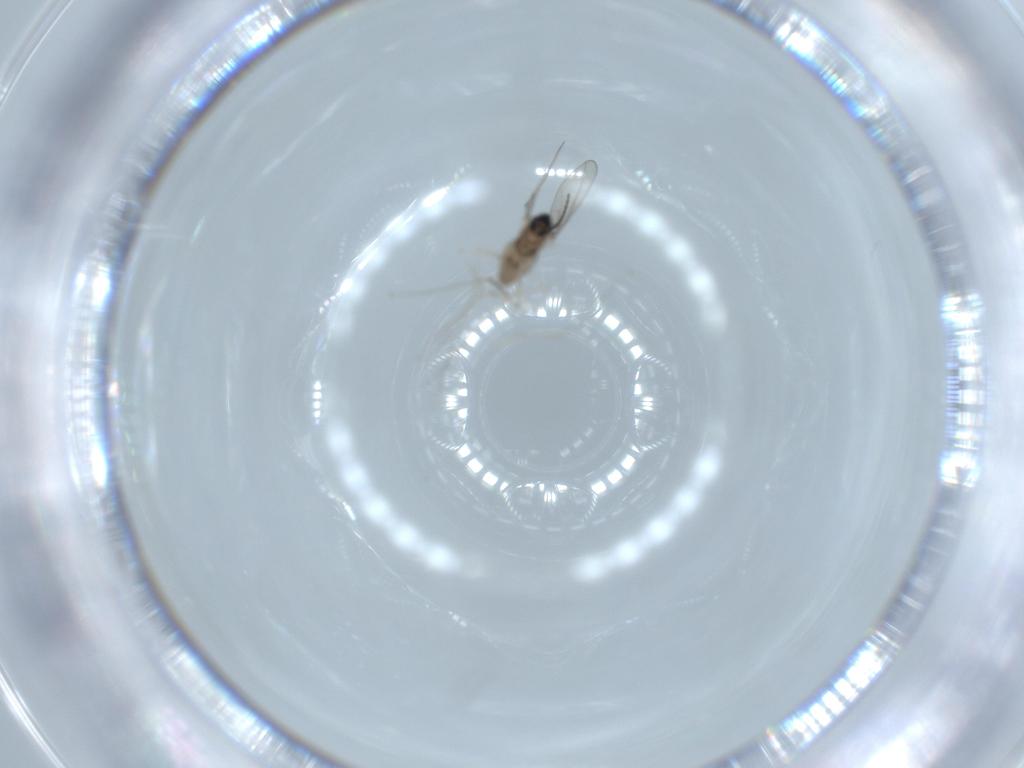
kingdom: Animalia
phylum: Arthropoda
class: Insecta
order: Diptera
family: Cecidomyiidae
